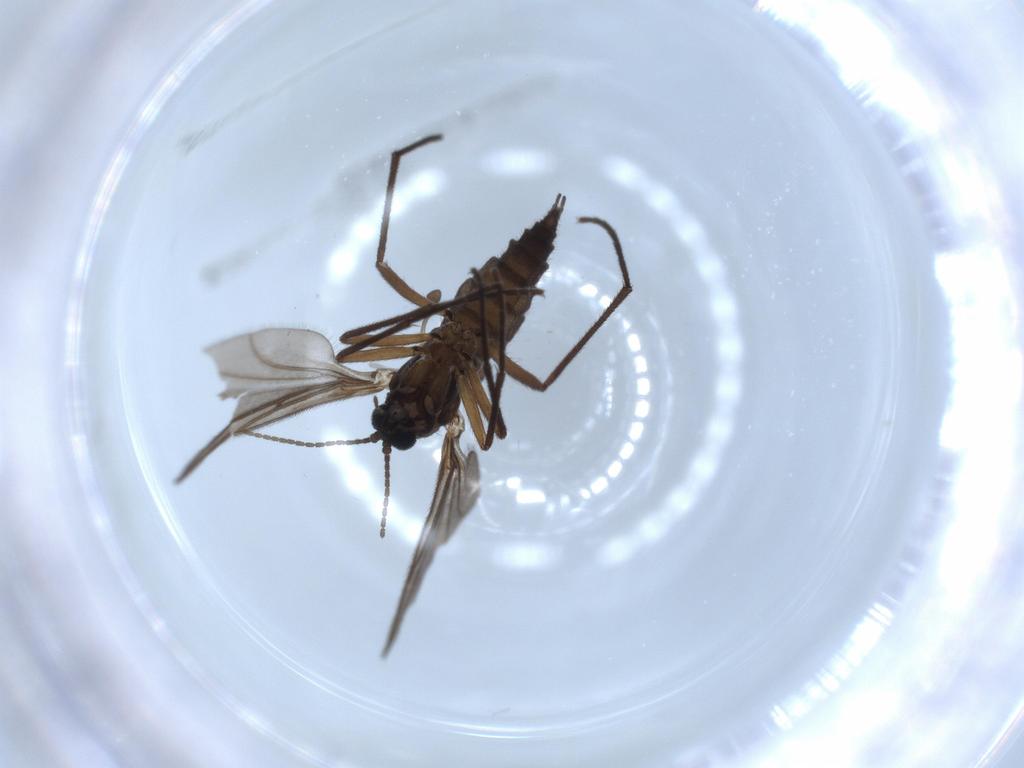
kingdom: Animalia
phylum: Arthropoda
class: Insecta
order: Diptera
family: Sciaridae
